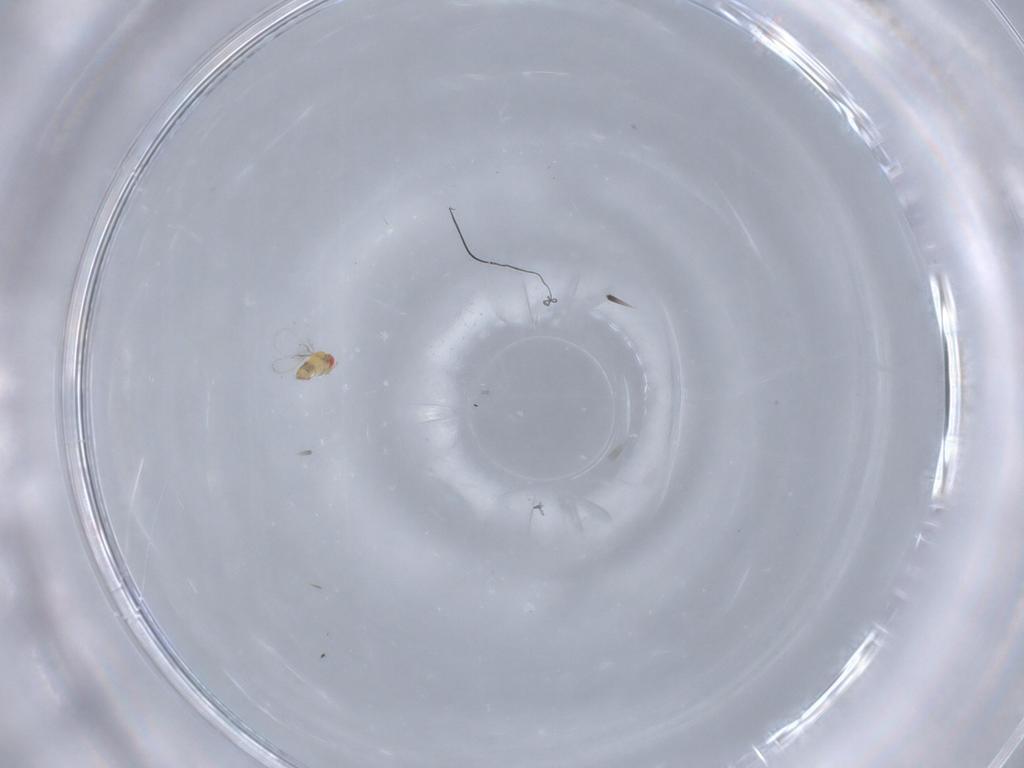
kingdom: Animalia
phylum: Arthropoda
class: Insecta
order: Hymenoptera
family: Trichogrammatidae
